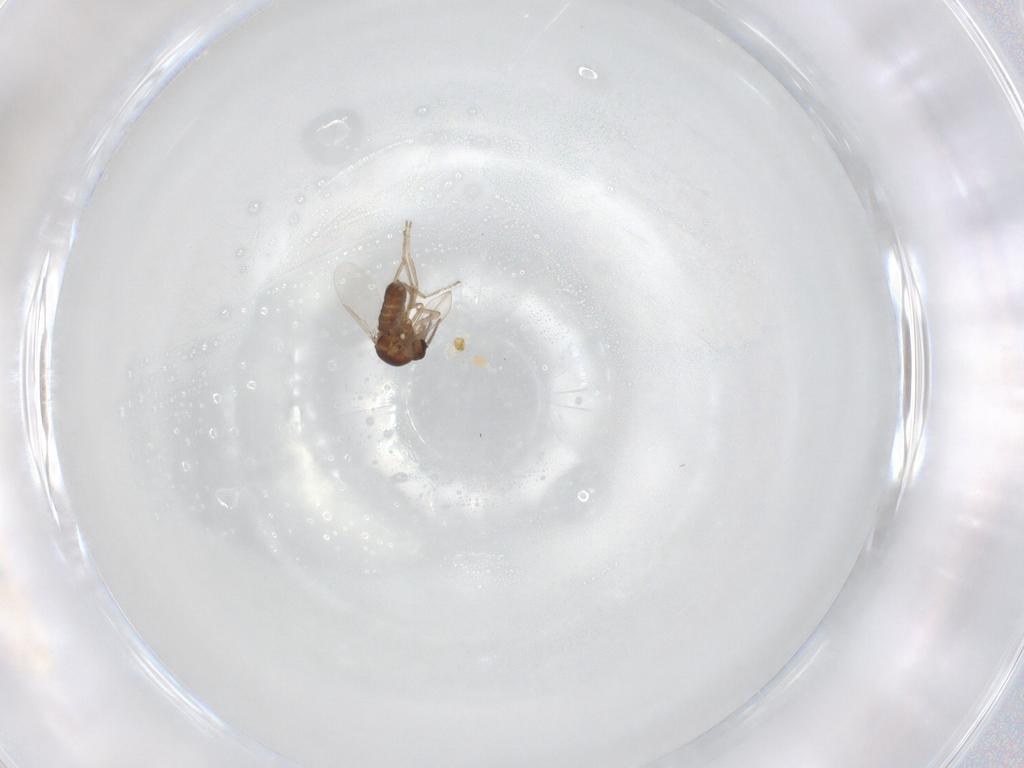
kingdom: Animalia
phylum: Arthropoda
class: Insecta
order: Diptera
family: Ceratopogonidae
